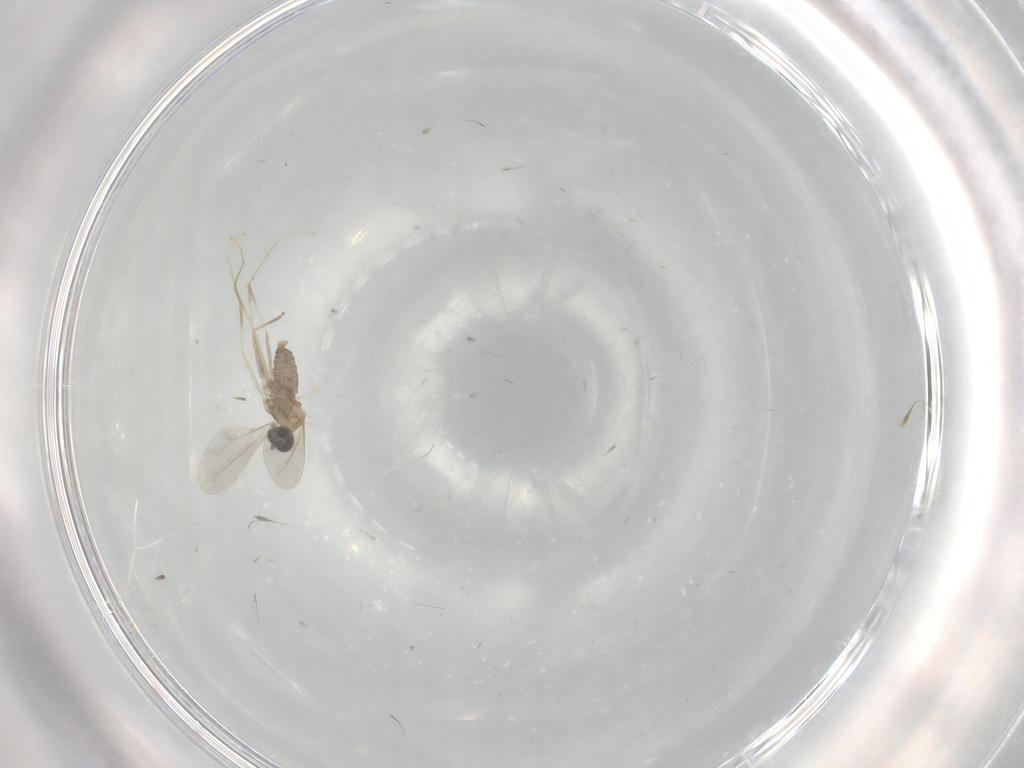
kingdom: Animalia
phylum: Arthropoda
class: Insecta
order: Diptera
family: Cecidomyiidae
